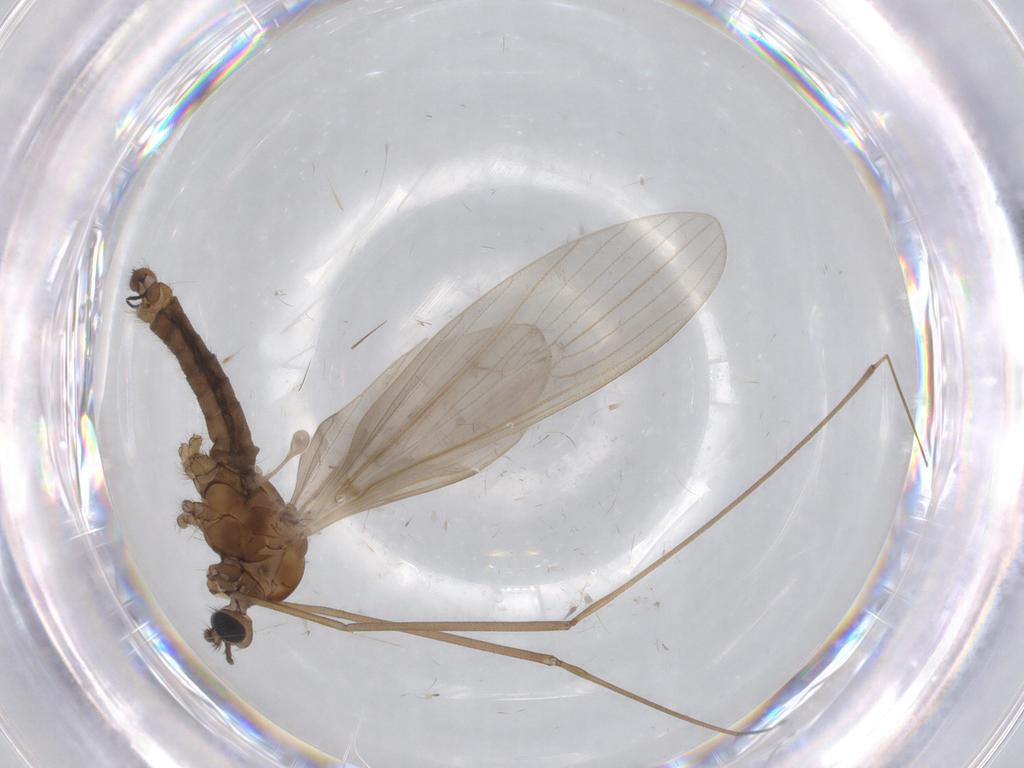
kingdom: Animalia
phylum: Arthropoda
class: Insecta
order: Diptera
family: Limoniidae
